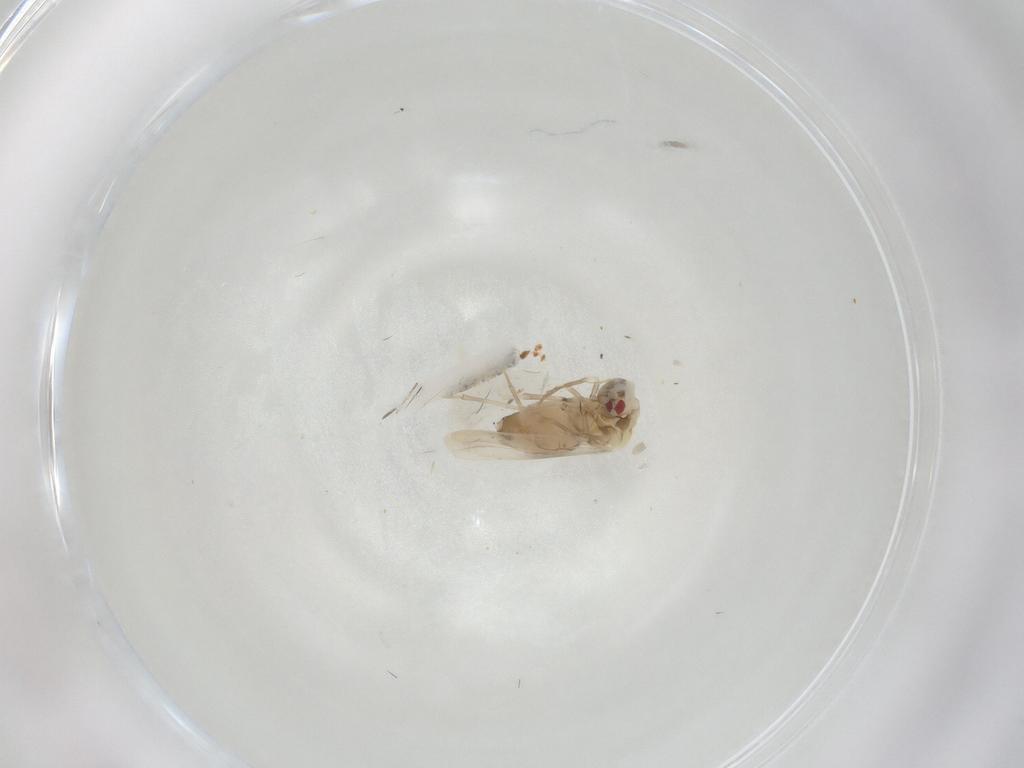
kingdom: Animalia
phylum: Arthropoda
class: Insecta
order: Hemiptera
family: Aleyrodidae
